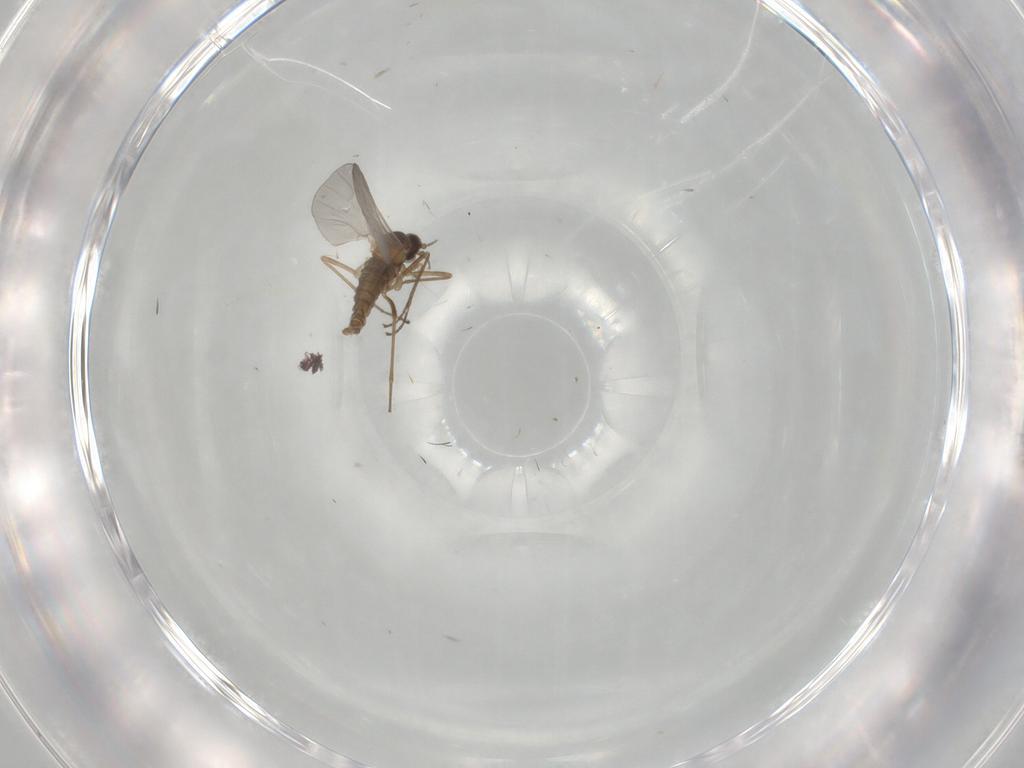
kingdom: Animalia
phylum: Arthropoda
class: Insecta
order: Diptera
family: Cecidomyiidae
